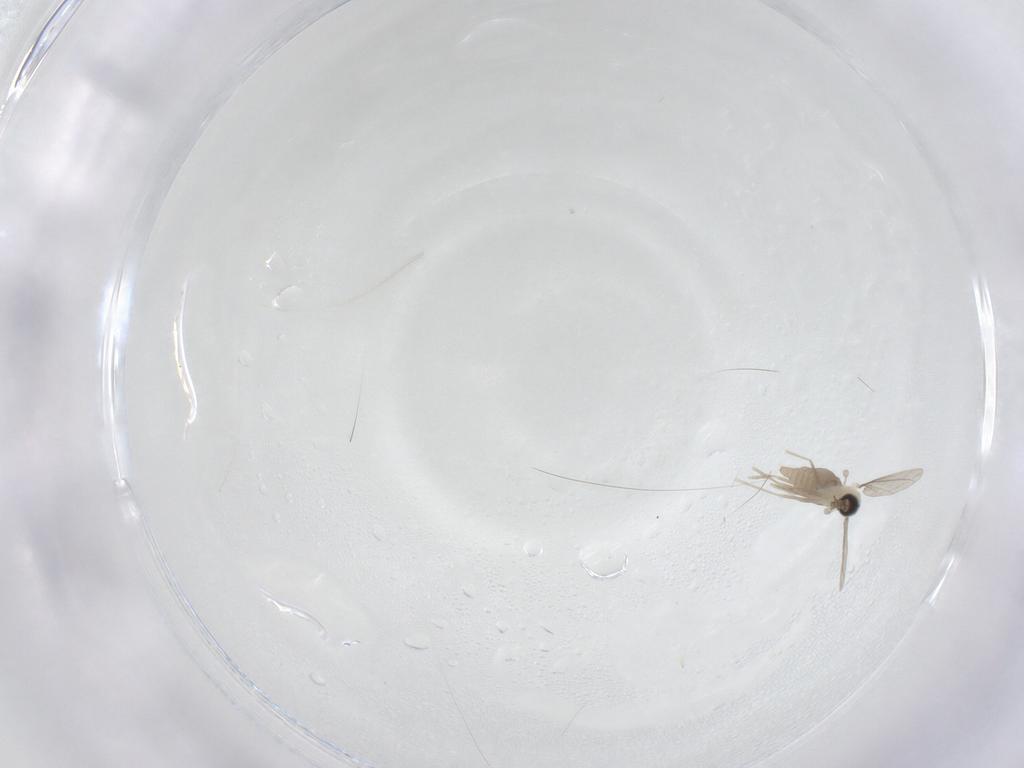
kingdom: Animalia
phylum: Arthropoda
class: Insecta
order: Diptera
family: Cecidomyiidae
